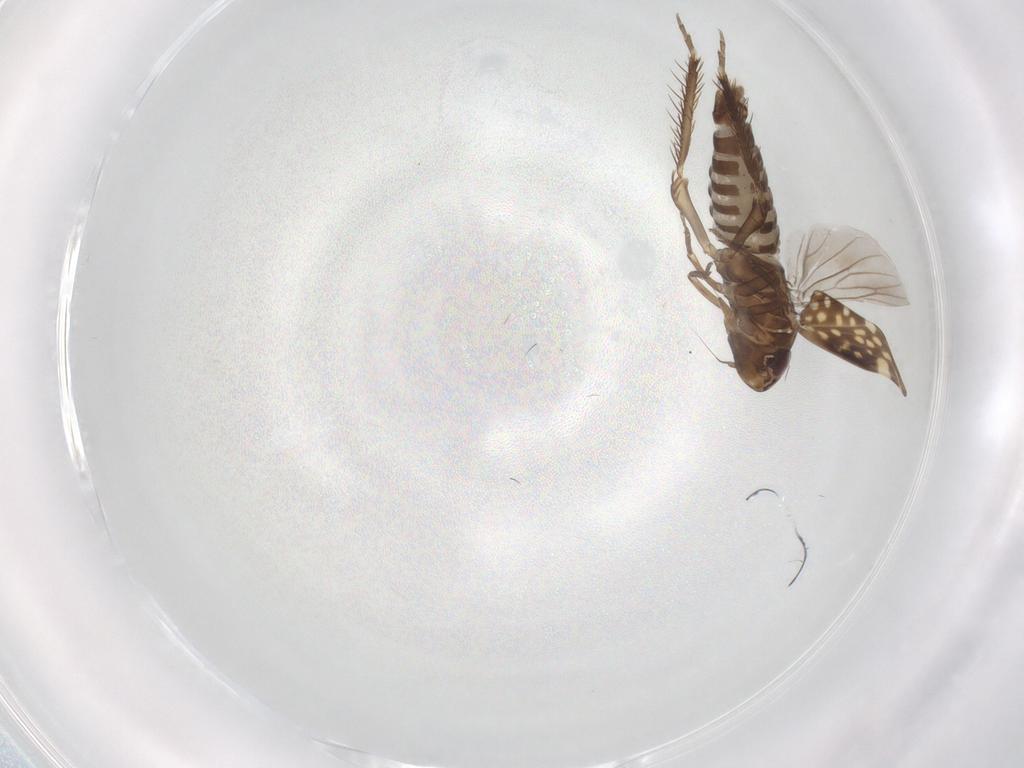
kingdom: Animalia
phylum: Arthropoda
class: Insecta
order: Hemiptera
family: Cicadellidae
